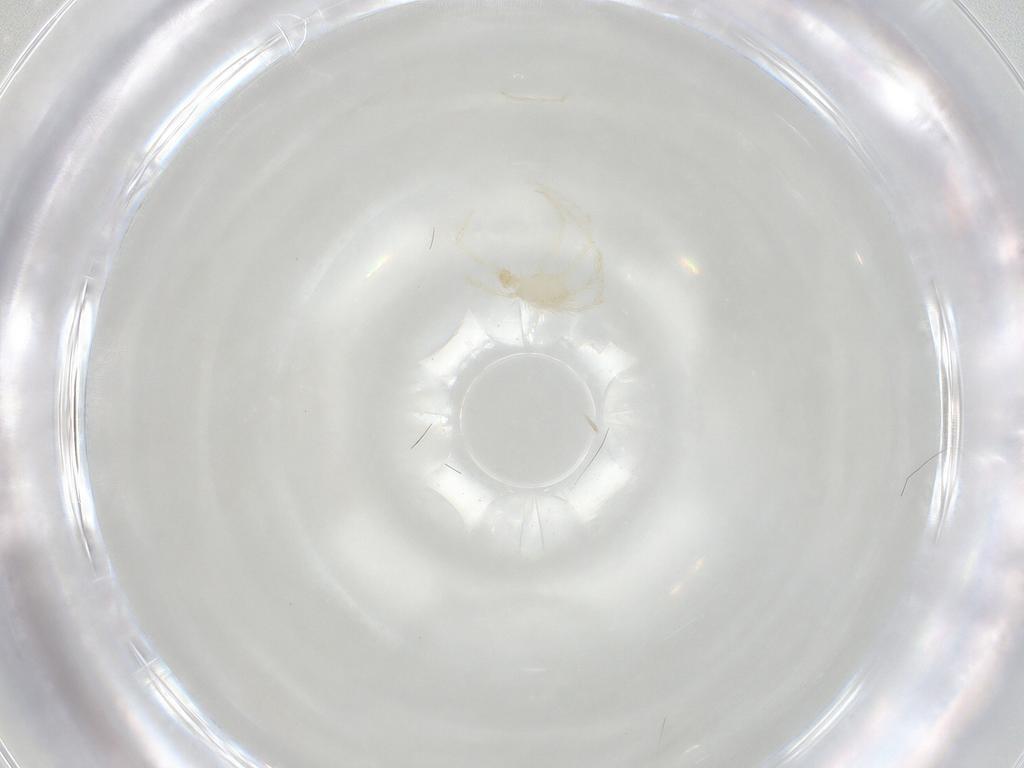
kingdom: Animalia
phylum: Arthropoda
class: Arachnida
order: Trombidiformes
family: Erythraeidae
